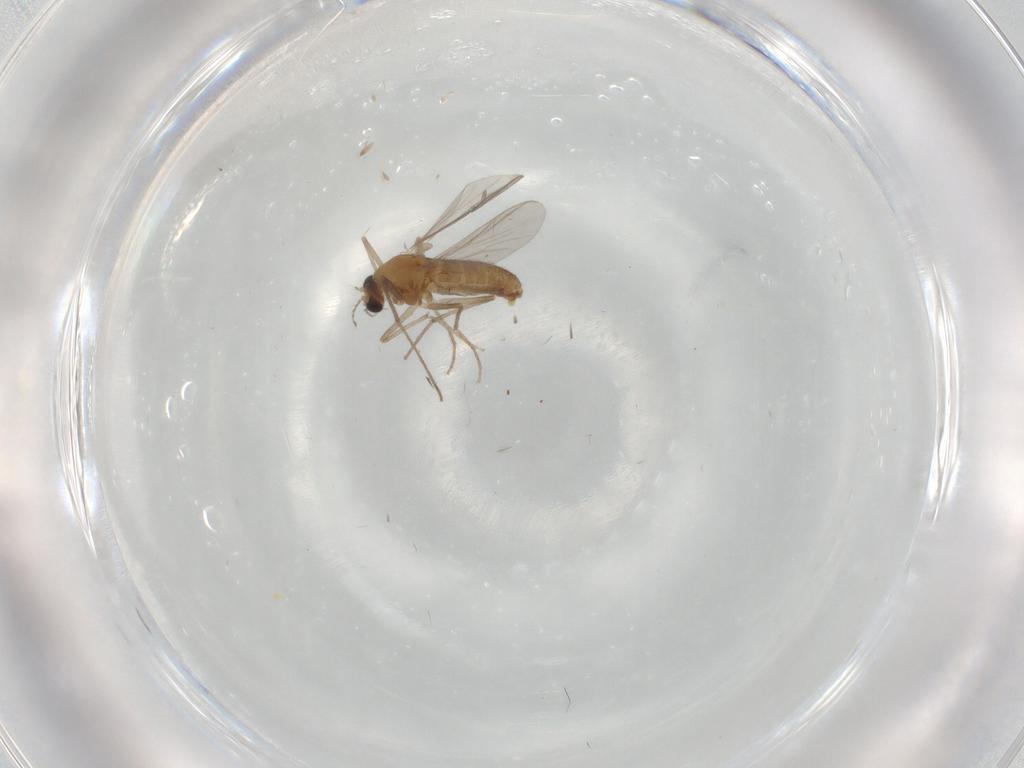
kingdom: Animalia
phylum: Arthropoda
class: Insecta
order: Diptera
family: Chironomidae
